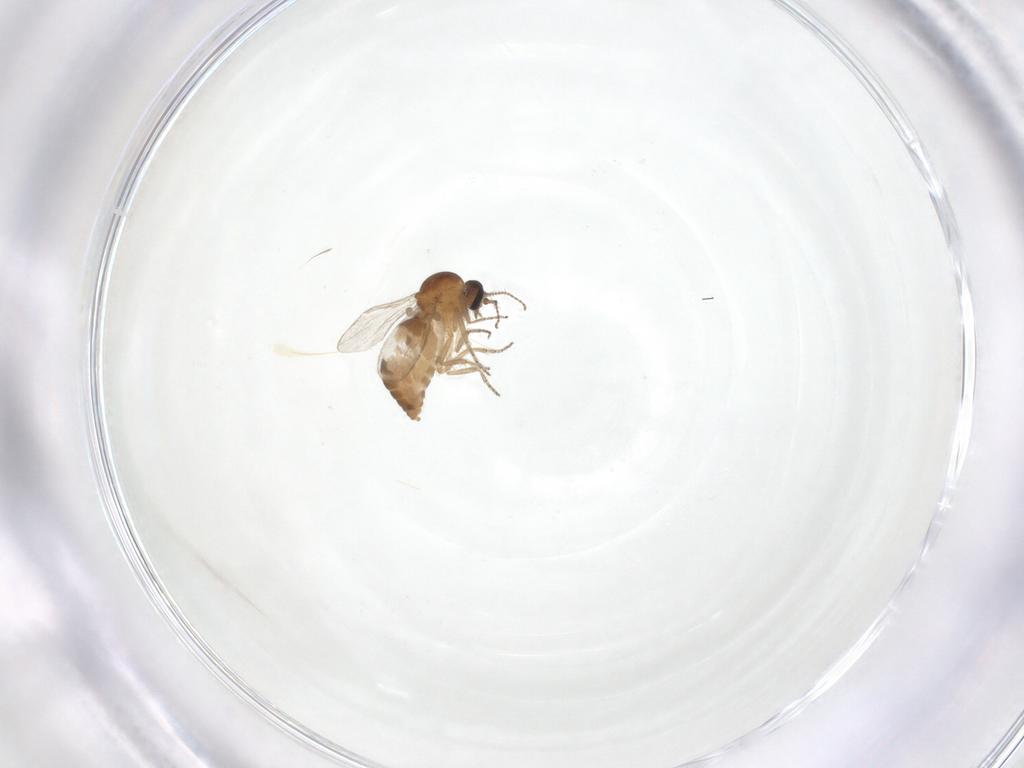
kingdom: Animalia
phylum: Arthropoda
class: Insecta
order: Diptera
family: Ceratopogonidae
